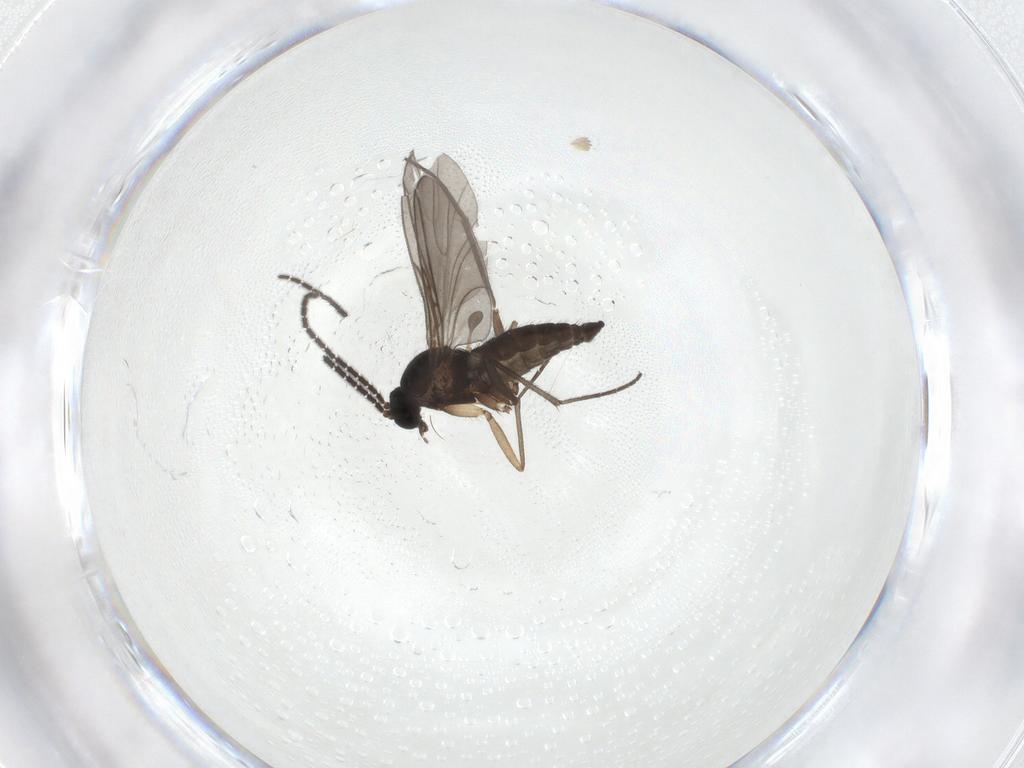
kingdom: Animalia
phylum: Arthropoda
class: Insecta
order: Diptera
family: Sciaridae
